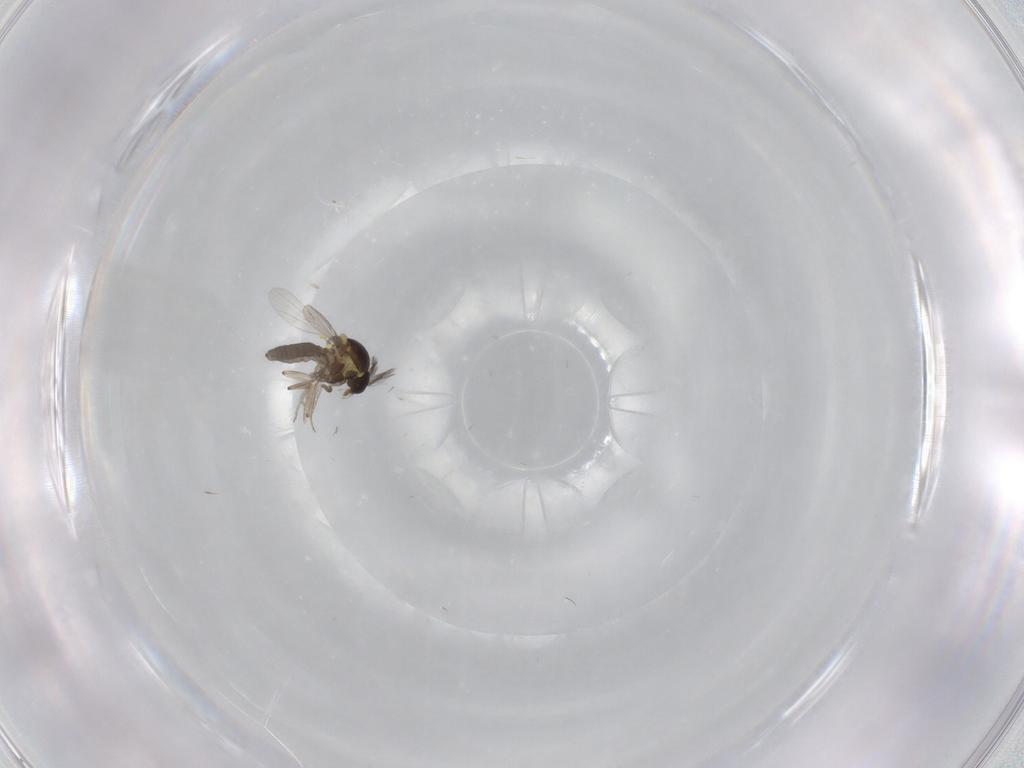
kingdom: Animalia
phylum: Arthropoda
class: Insecta
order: Diptera
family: Ceratopogonidae
